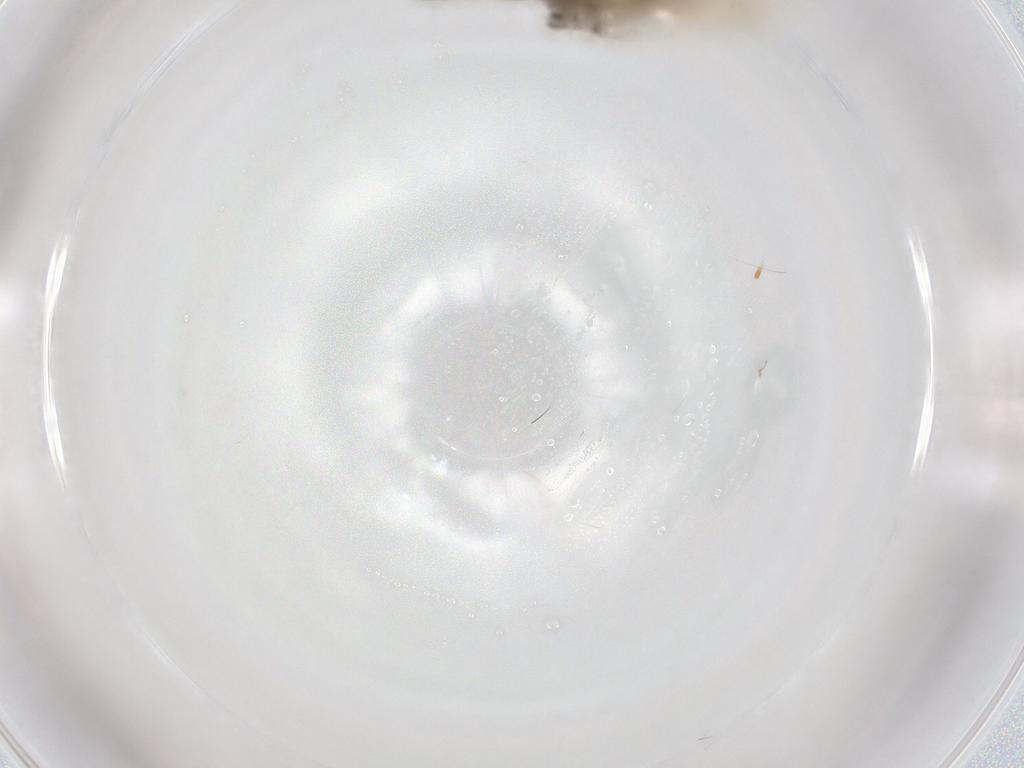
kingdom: Animalia
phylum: Arthropoda
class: Insecta
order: Hemiptera
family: Triozidae
